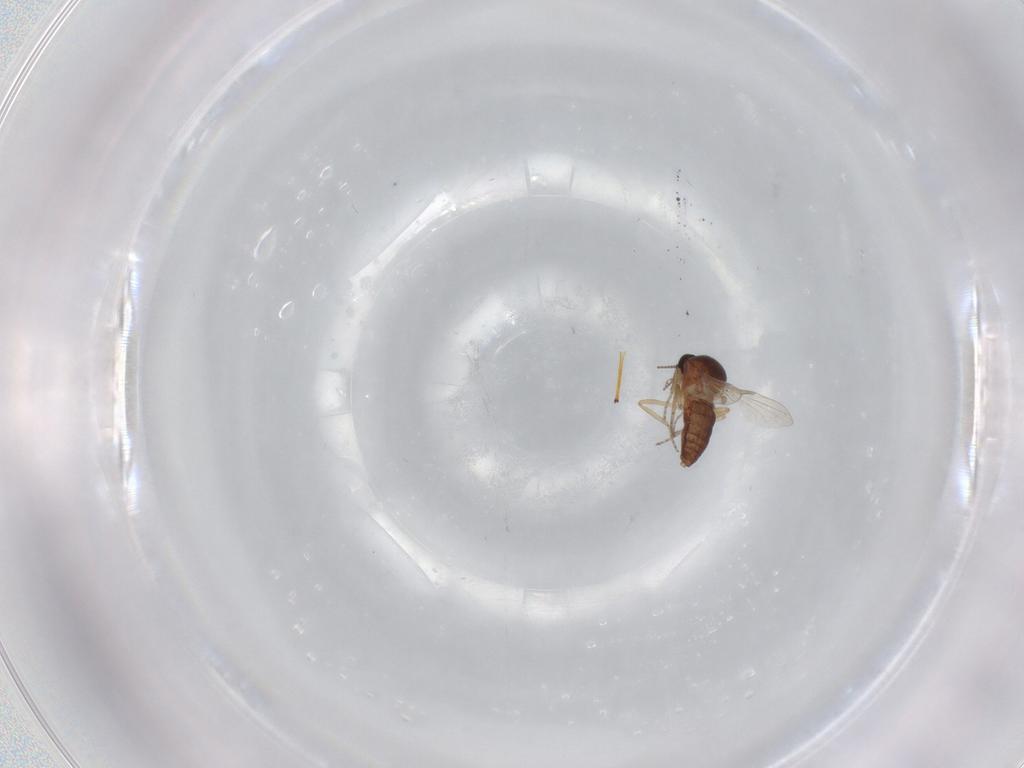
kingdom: Animalia
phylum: Arthropoda
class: Insecta
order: Diptera
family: Ceratopogonidae
